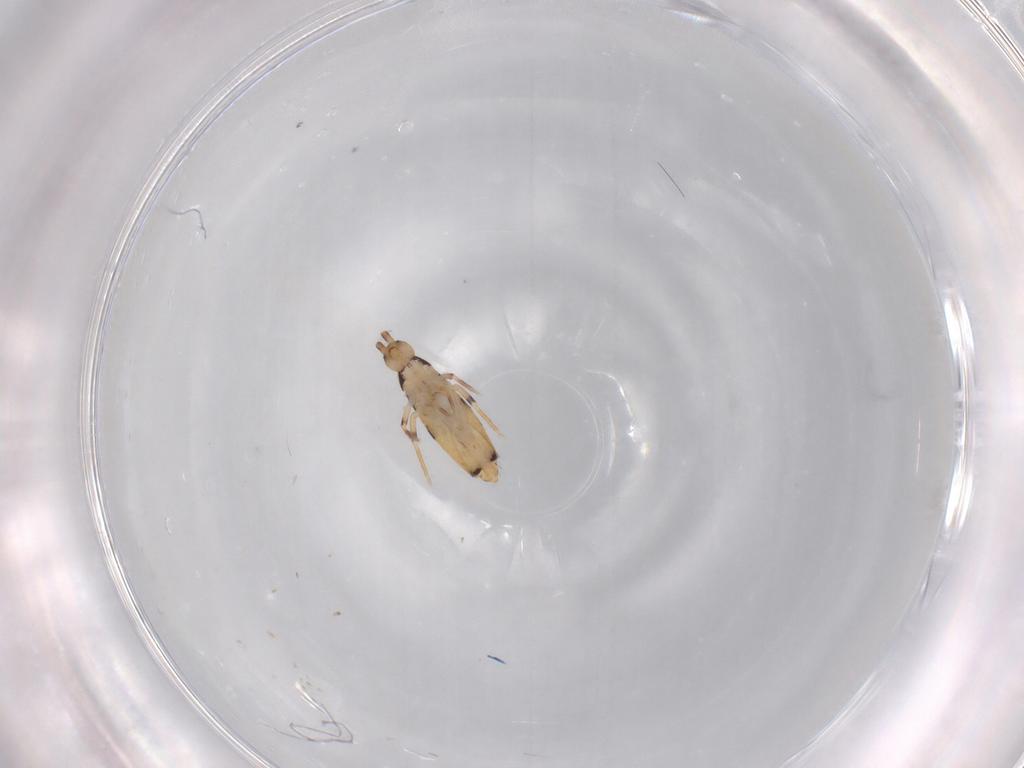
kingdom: Animalia
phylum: Arthropoda
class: Collembola
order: Entomobryomorpha
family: Entomobryidae
